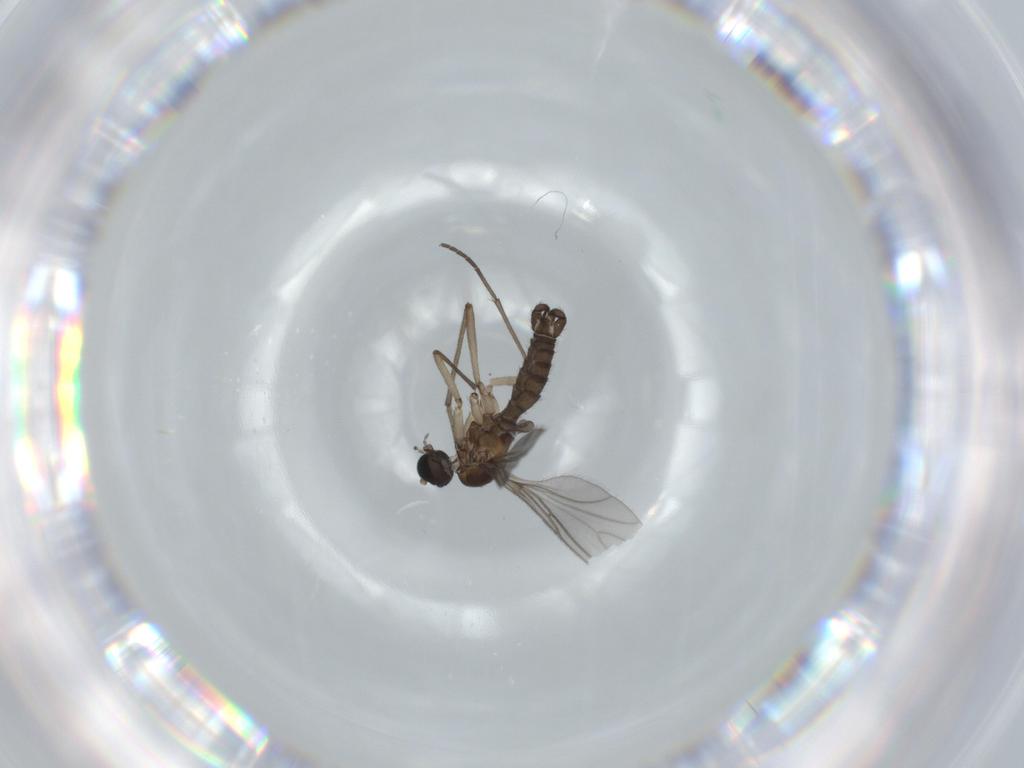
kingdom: Animalia
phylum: Arthropoda
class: Insecta
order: Diptera
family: Sciaridae
